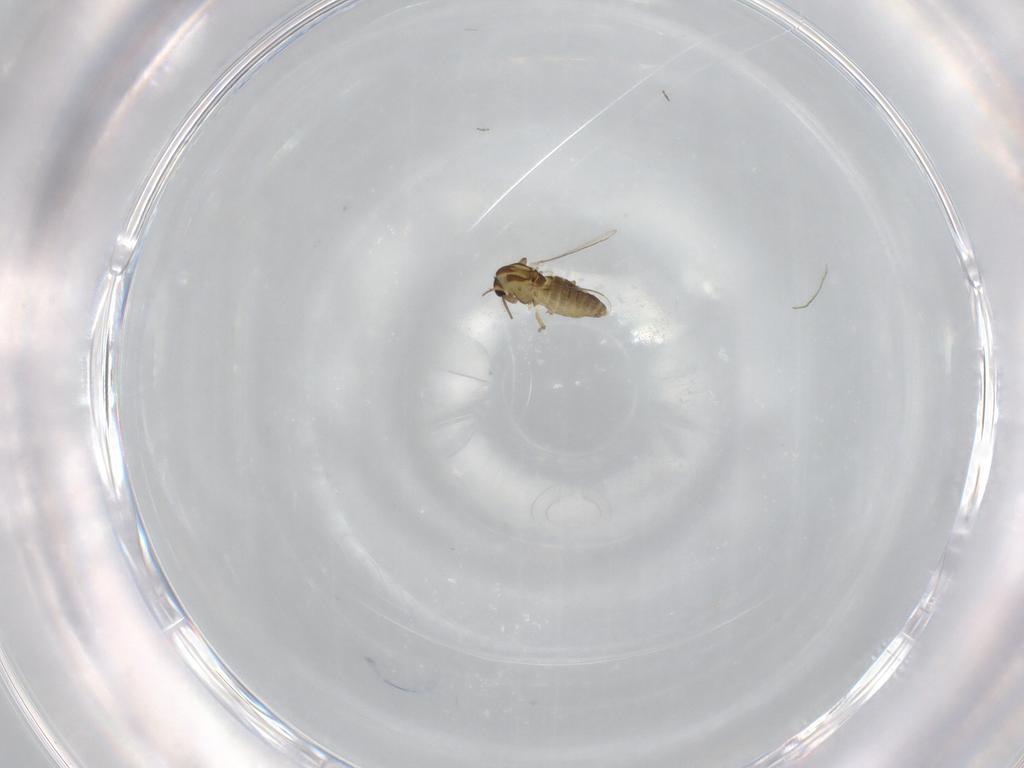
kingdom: Animalia
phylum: Arthropoda
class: Insecta
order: Diptera
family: Chironomidae
